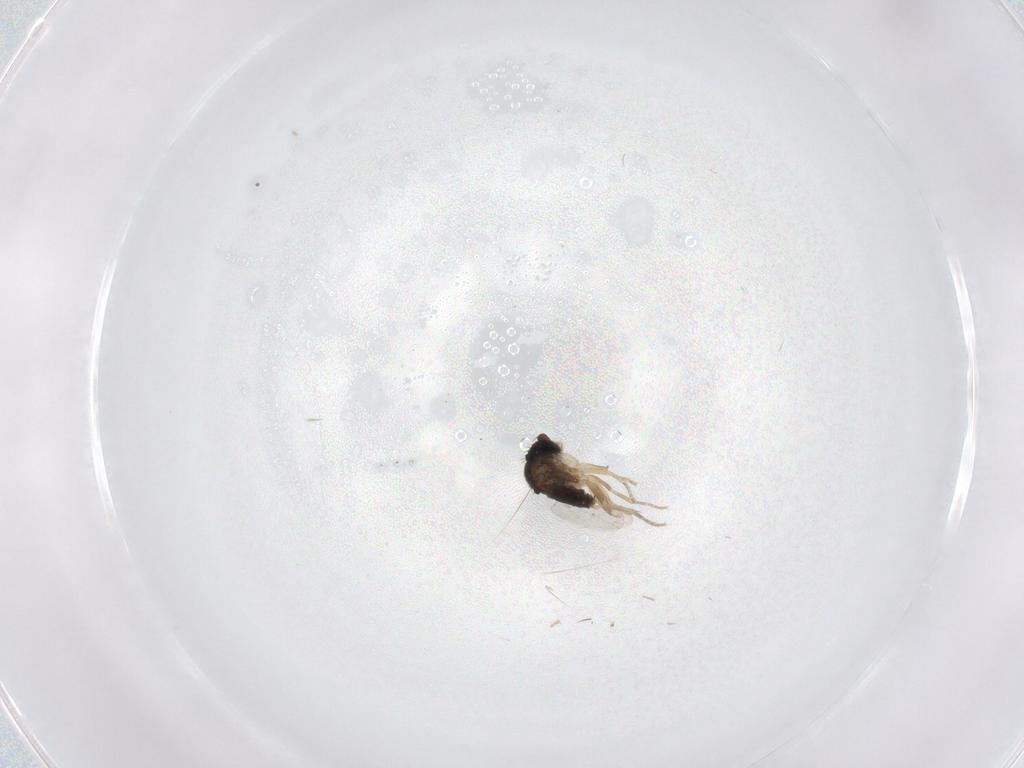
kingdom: Animalia
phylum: Arthropoda
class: Insecta
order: Diptera
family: Phoridae
